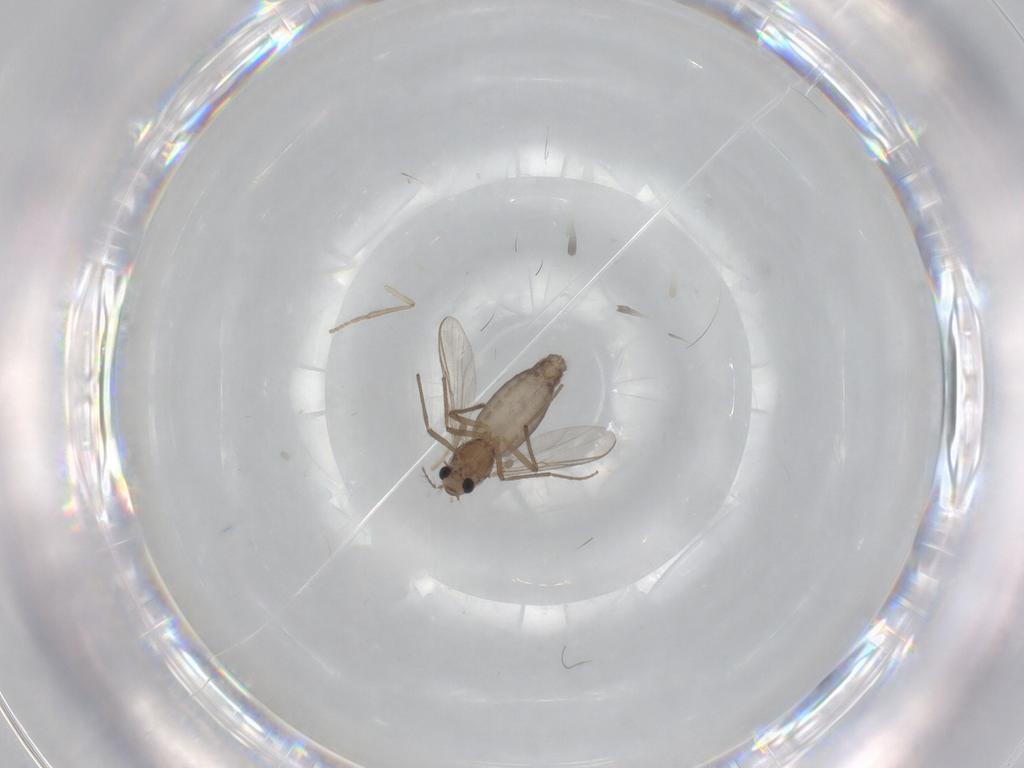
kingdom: Animalia
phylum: Arthropoda
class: Insecta
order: Diptera
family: Chironomidae
